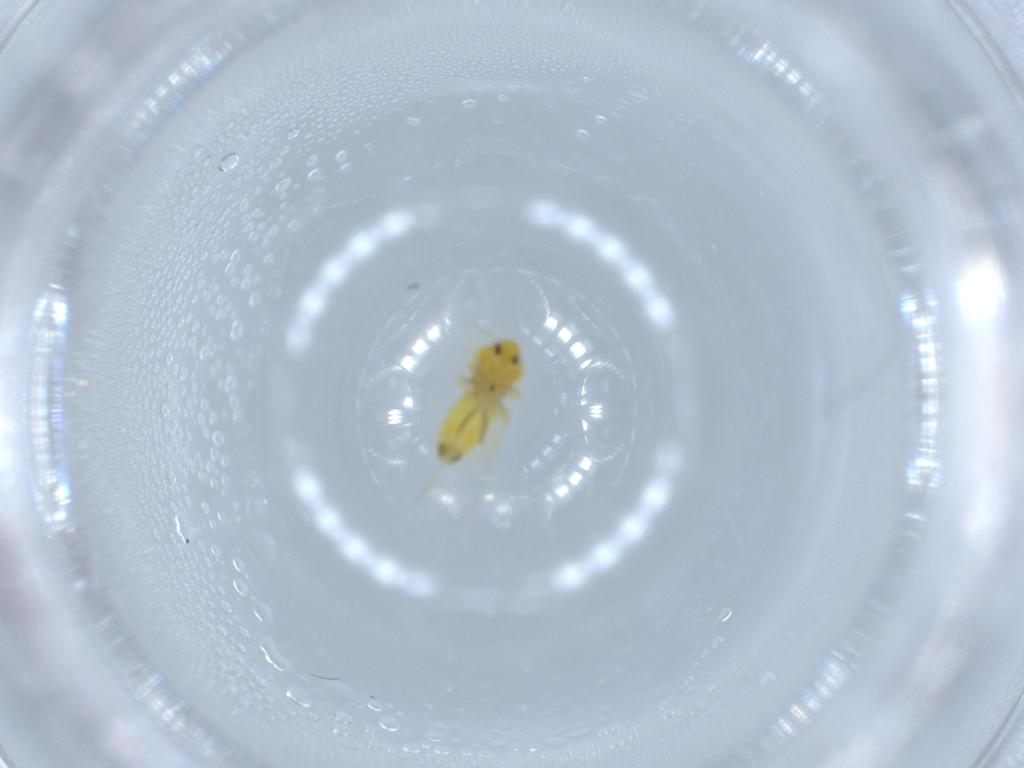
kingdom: Animalia
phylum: Arthropoda
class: Insecta
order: Hemiptera
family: Aleyrodidae
